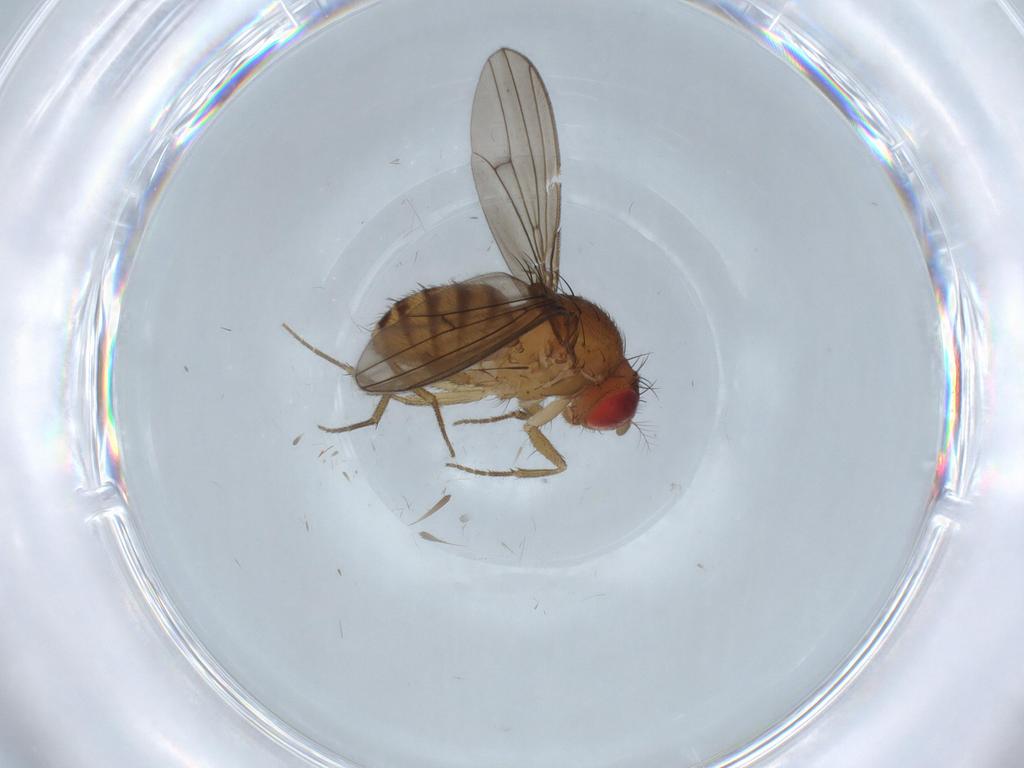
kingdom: Animalia
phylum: Arthropoda
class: Insecta
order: Diptera
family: Drosophilidae
